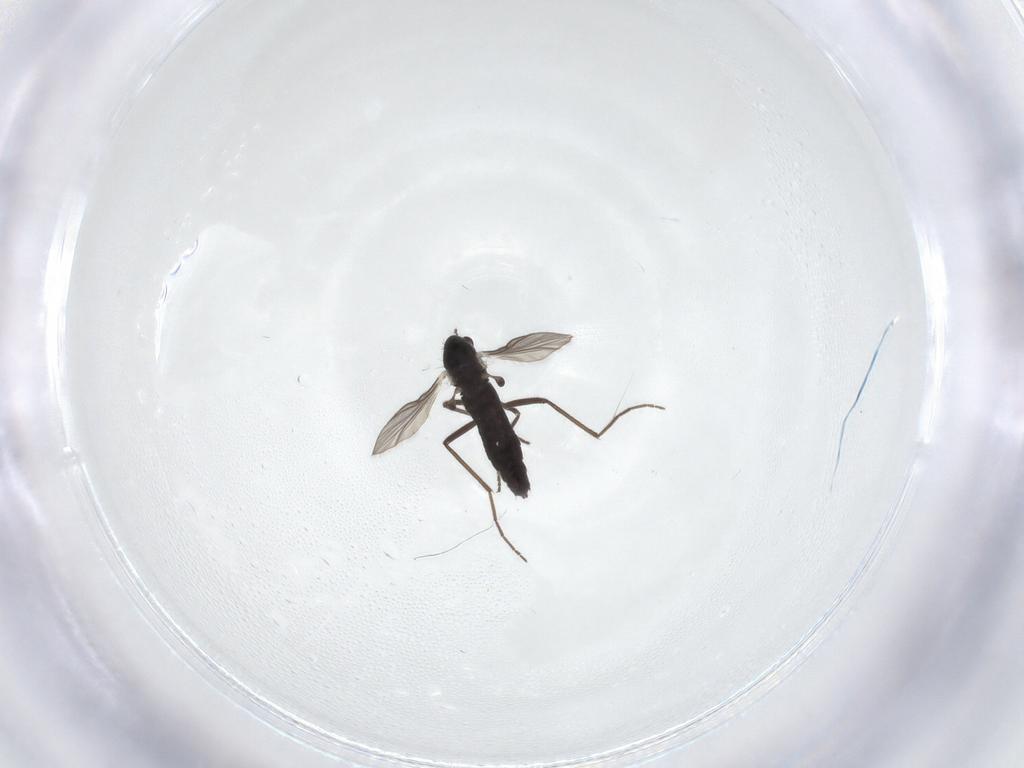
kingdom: Animalia
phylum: Arthropoda
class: Insecta
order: Diptera
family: Chironomidae
